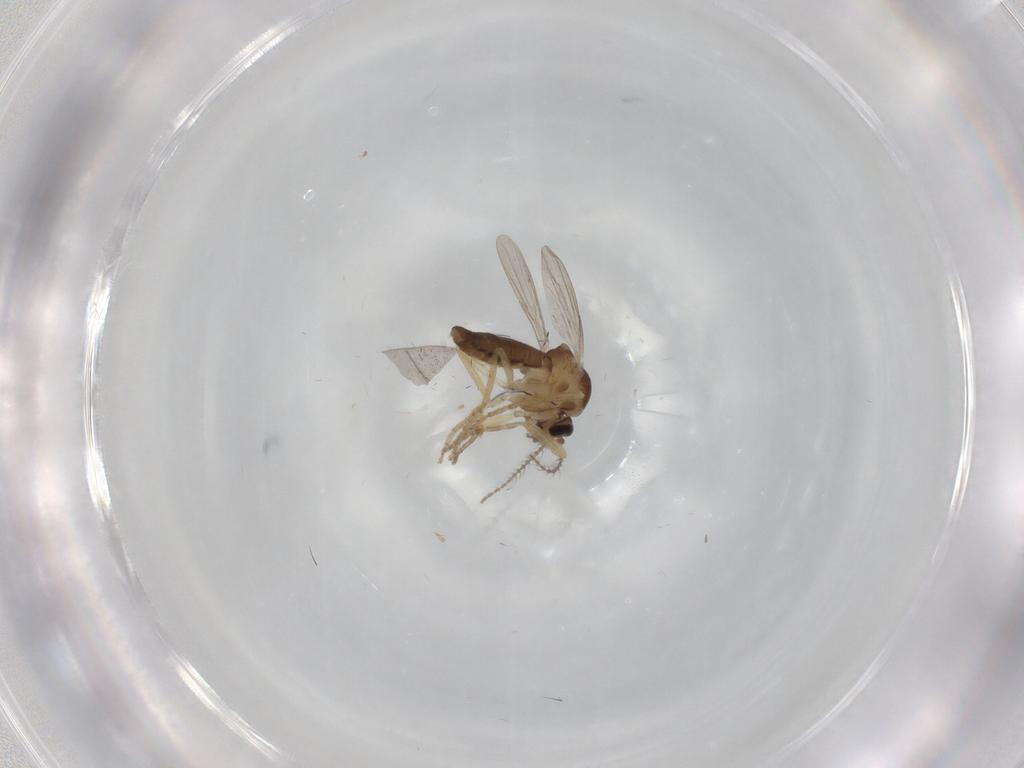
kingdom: Animalia
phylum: Arthropoda
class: Insecta
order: Diptera
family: Ceratopogonidae
